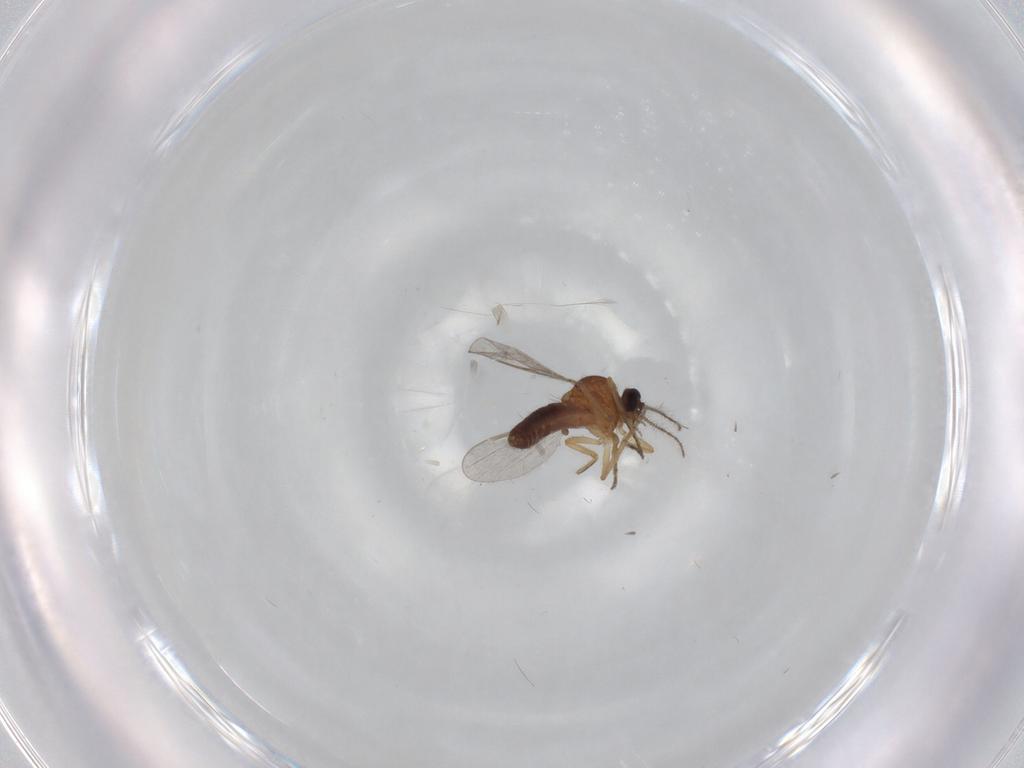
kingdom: Animalia
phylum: Arthropoda
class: Insecta
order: Diptera
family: Ceratopogonidae
